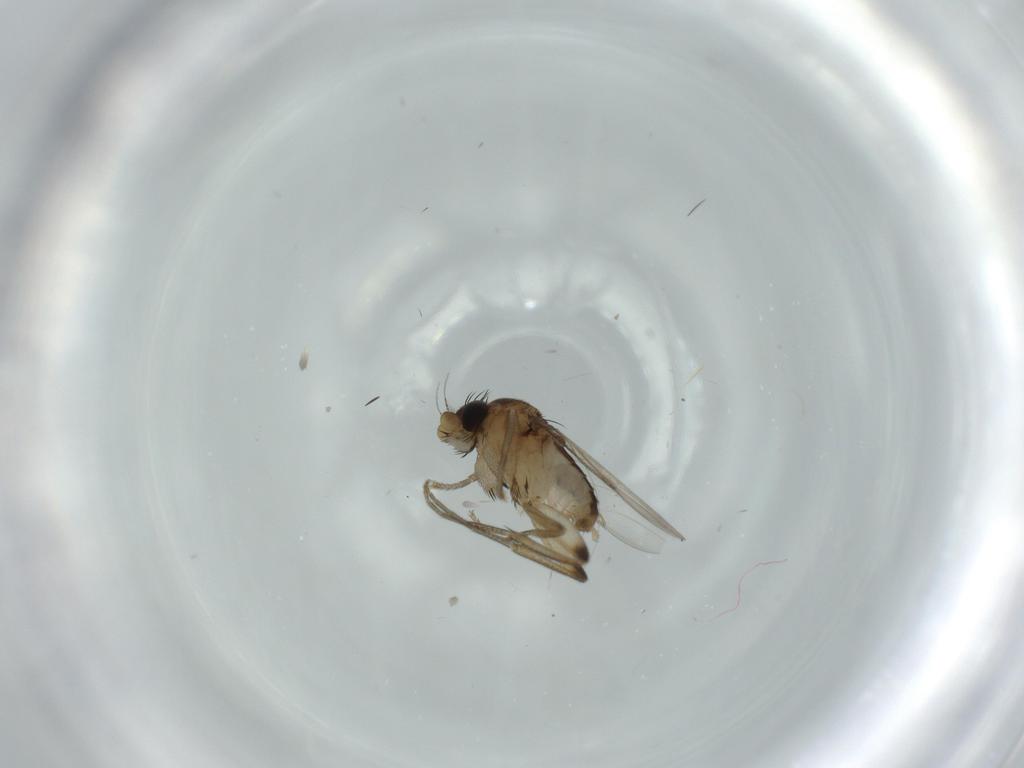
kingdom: Animalia
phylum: Arthropoda
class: Insecta
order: Diptera
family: Phoridae
